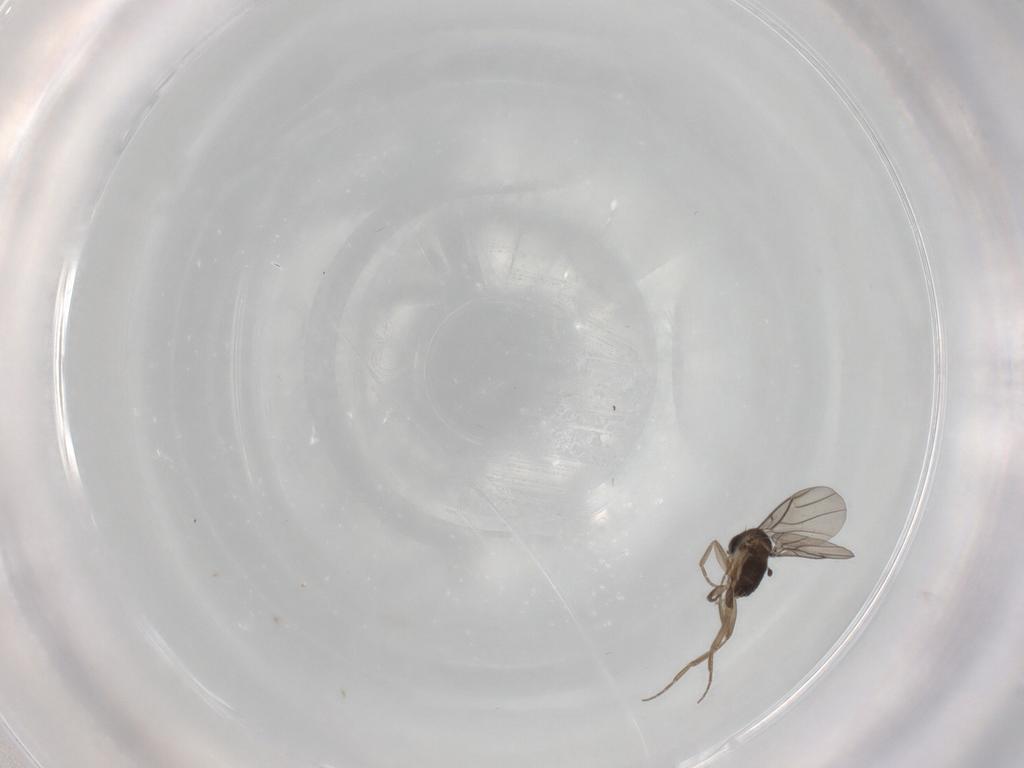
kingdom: Animalia
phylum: Arthropoda
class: Insecta
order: Diptera
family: Phoridae
